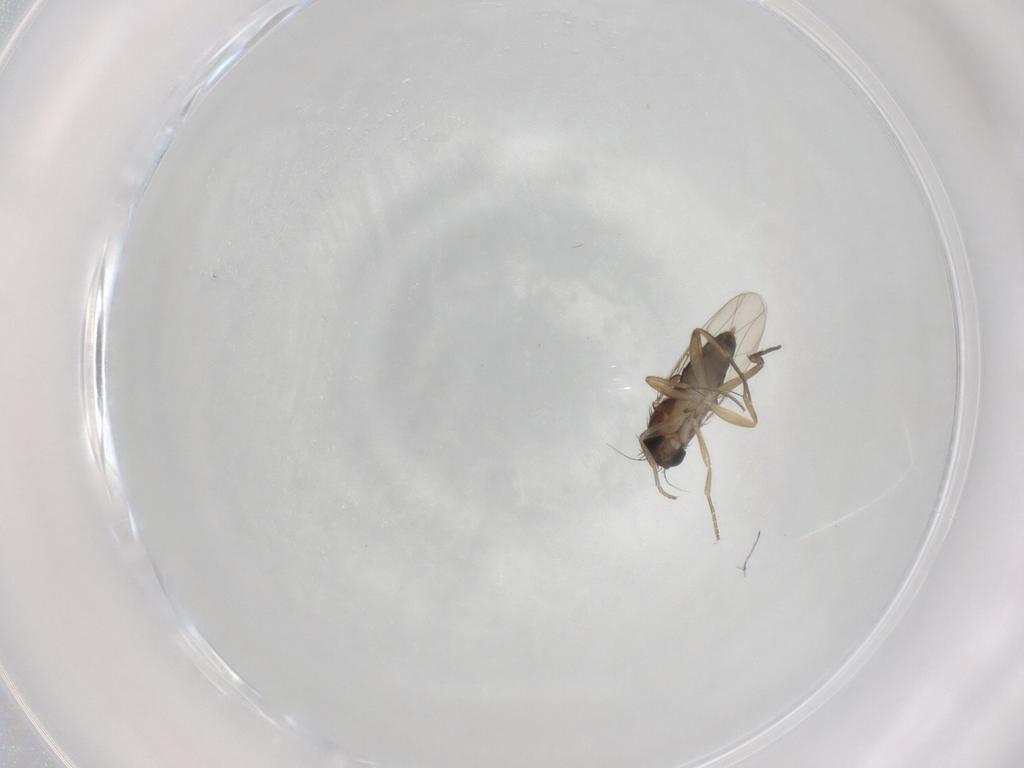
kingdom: Animalia
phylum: Arthropoda
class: Insecta
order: Diptera
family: Phoridae
